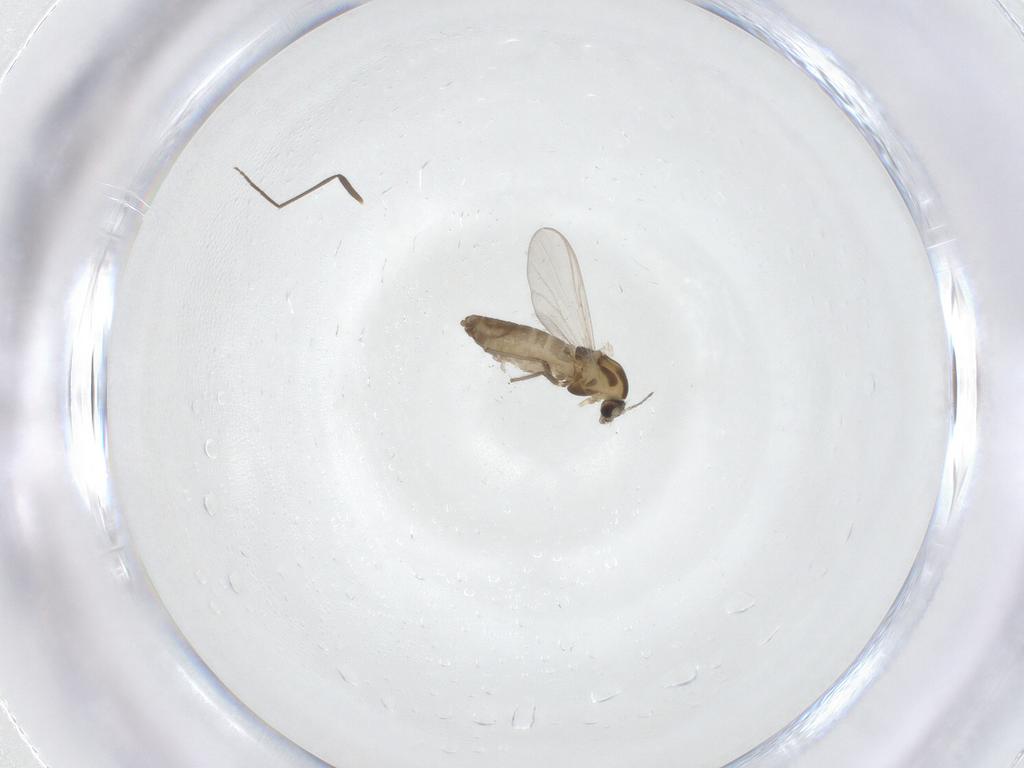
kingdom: Animalia
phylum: Arthropoda
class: Insecta
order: Diptera
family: Chironomidae
